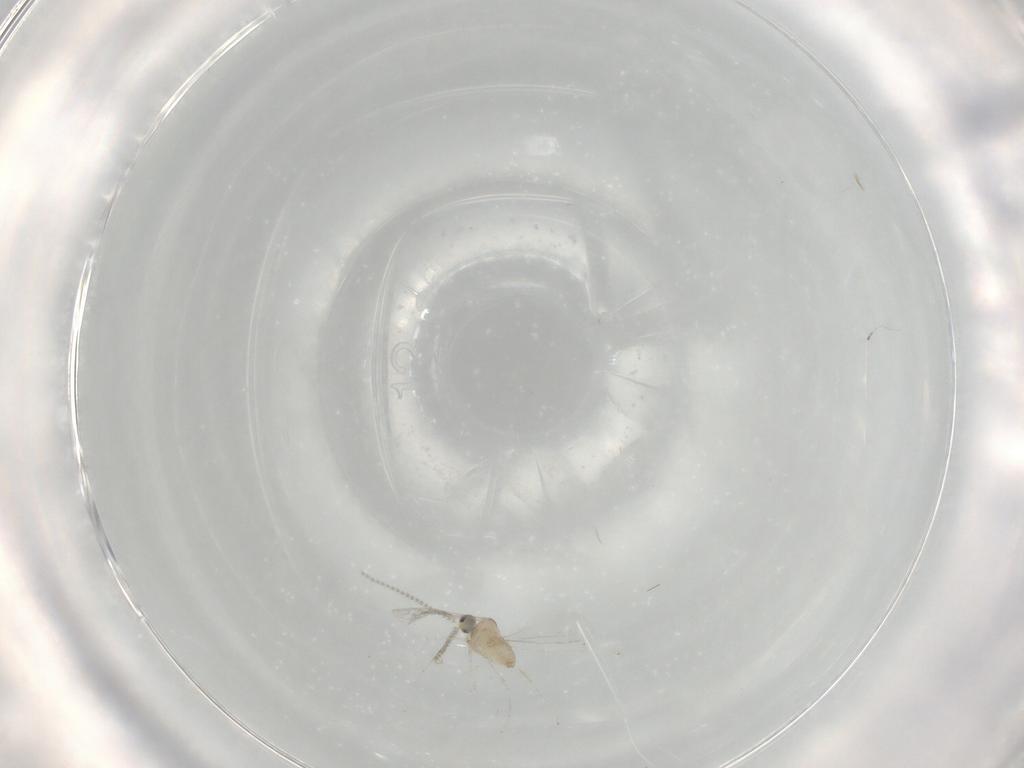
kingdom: Animalia
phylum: Arthropoda
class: Insecta
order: Diptera
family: Cecidomyiidae
